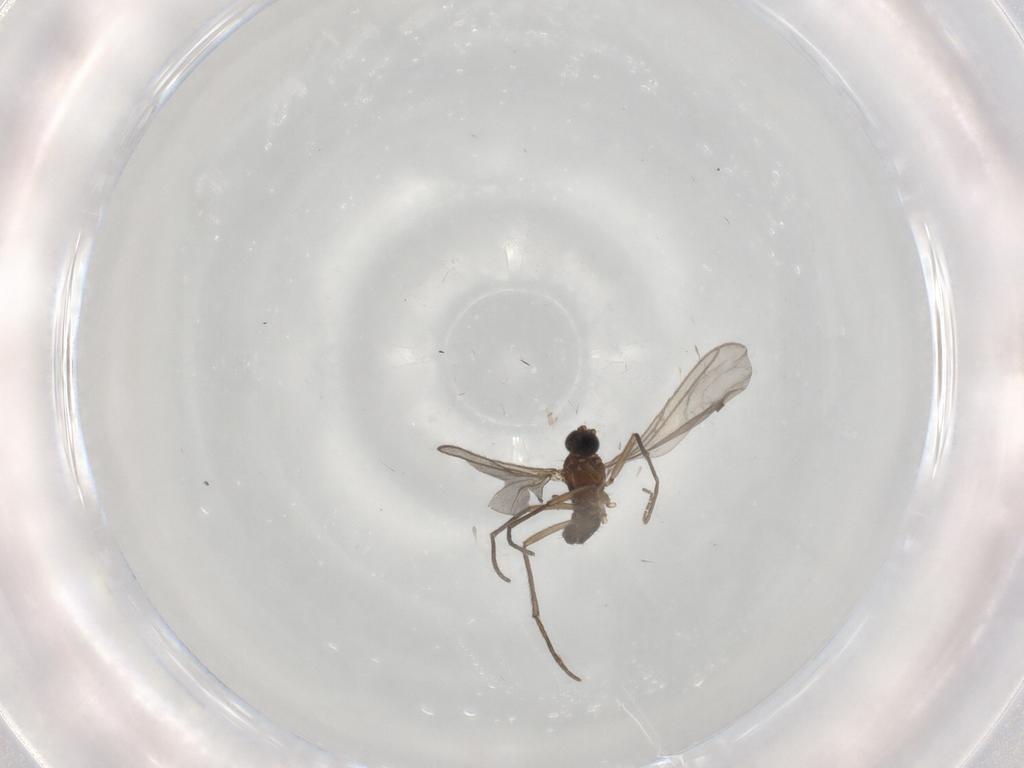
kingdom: Animalia
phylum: Arthropoda
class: Insecta
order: Diptera
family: Sciaridae
